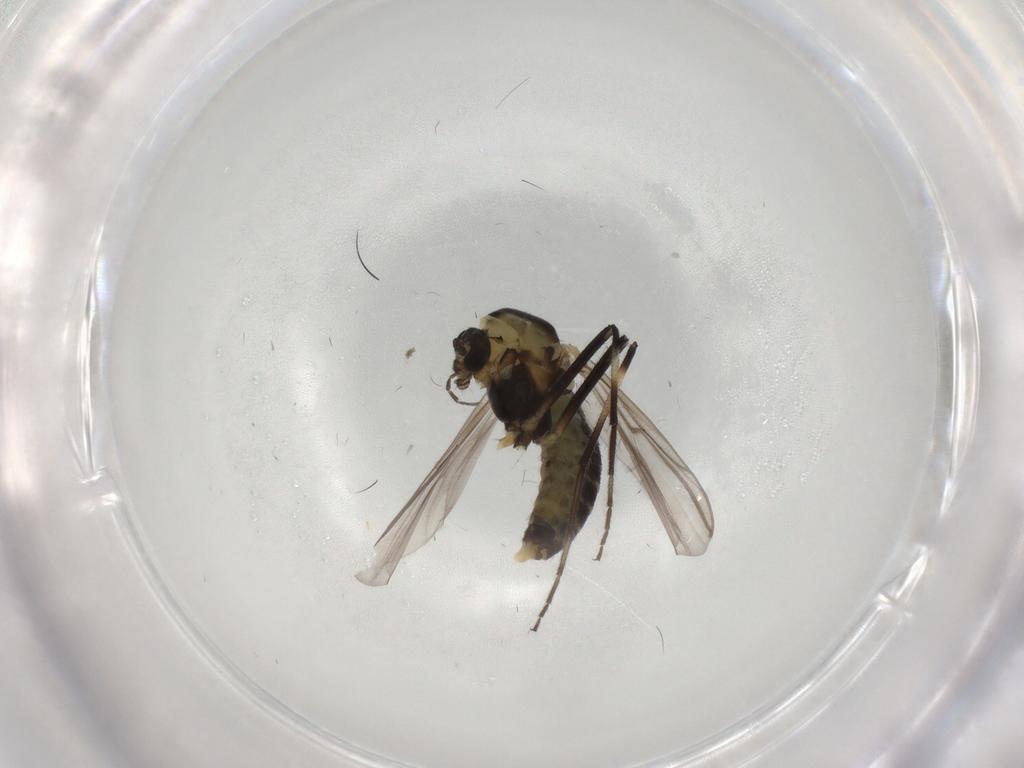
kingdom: Animalia
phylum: Arthropoda
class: Insecta
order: Diptera
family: Chironomidae
